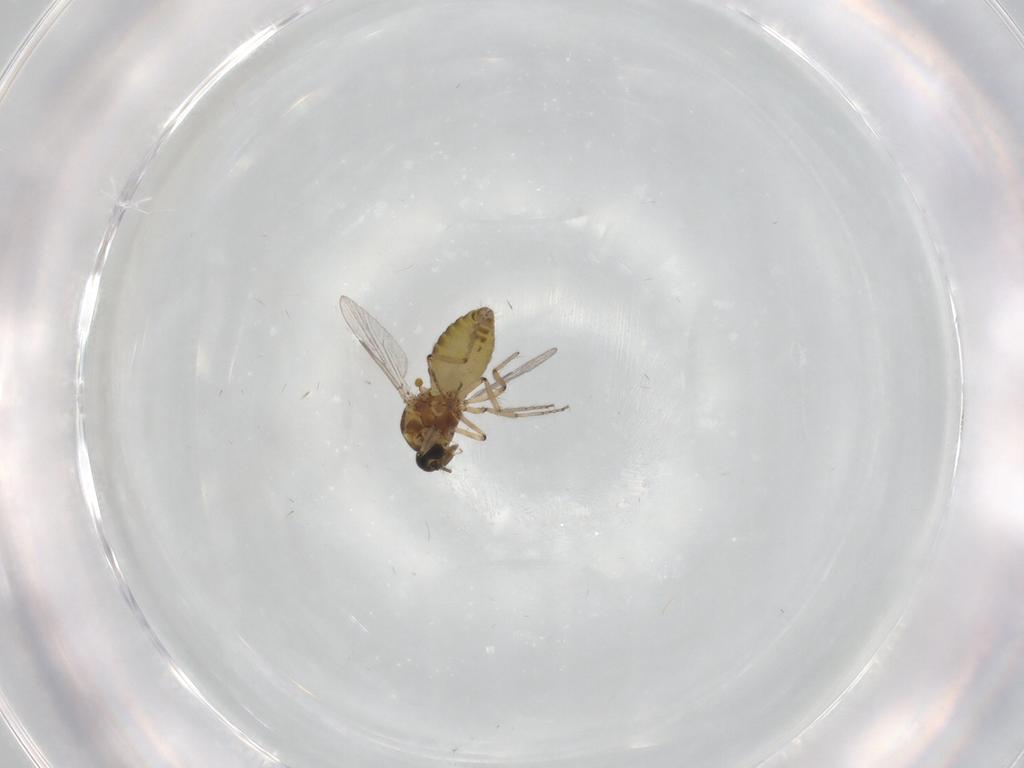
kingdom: Animalia
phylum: Arthropoda
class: Insecta
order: Diptera
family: Ceratopogonidae
